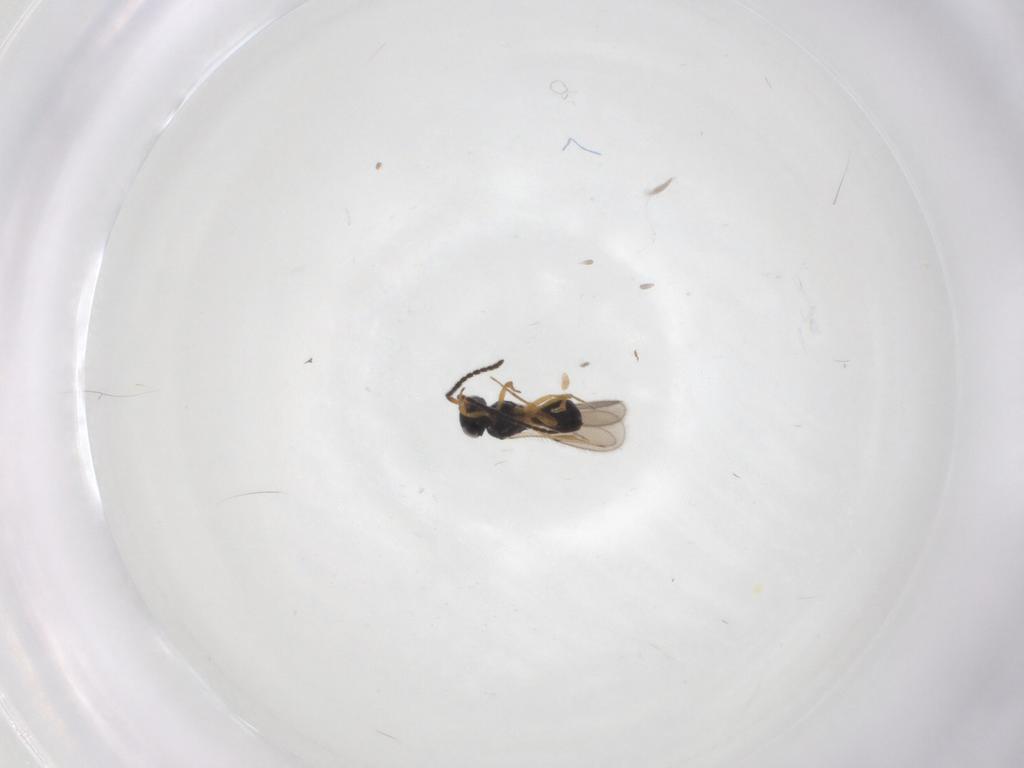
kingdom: Animalia
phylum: Arthropoda
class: Insecta
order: Hymenoptera
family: Scelionidae
